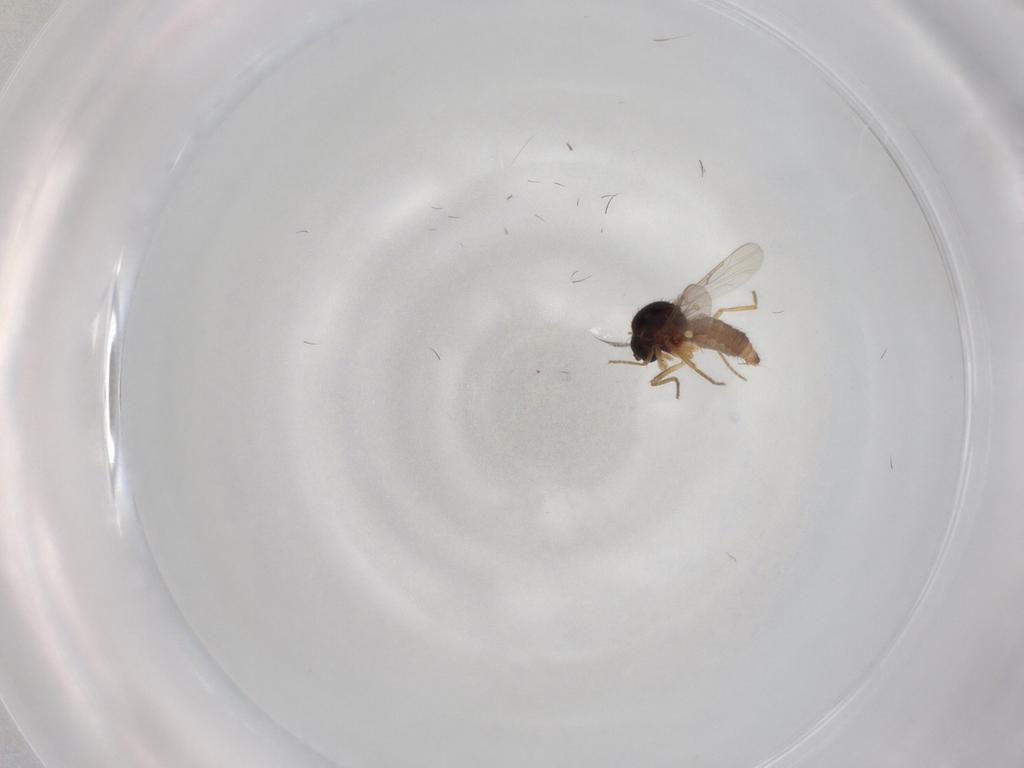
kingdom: Animalia
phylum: Arthropoda
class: Insecta
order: Diptera
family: Ceratopogonidae
